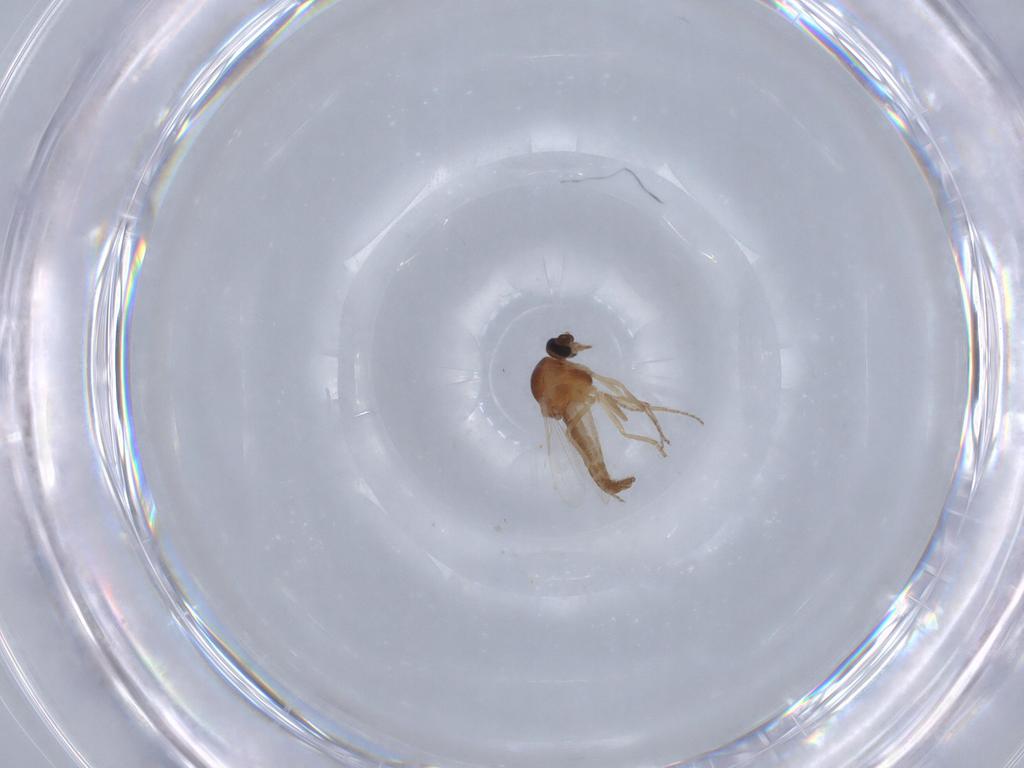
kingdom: Animalia
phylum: Arthropoda
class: Insecta
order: Diptera
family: Ceratopogonidae
